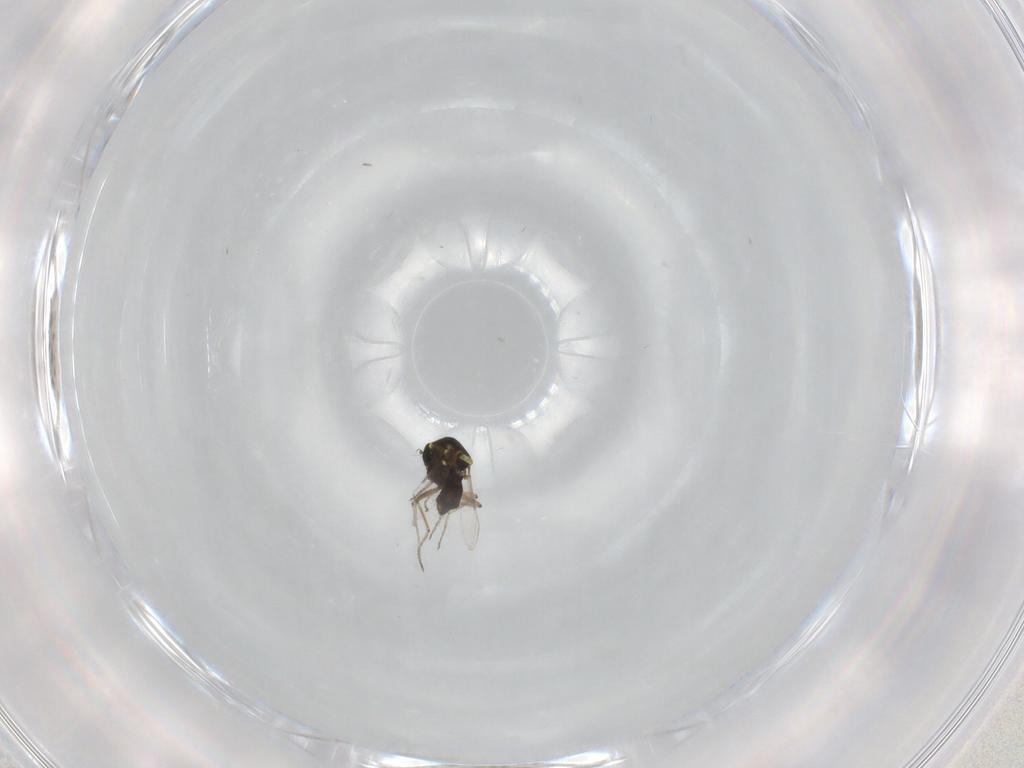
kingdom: Animalia
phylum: Arthropoda
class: Insecta
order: Diptera
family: Ceratopogonidae
